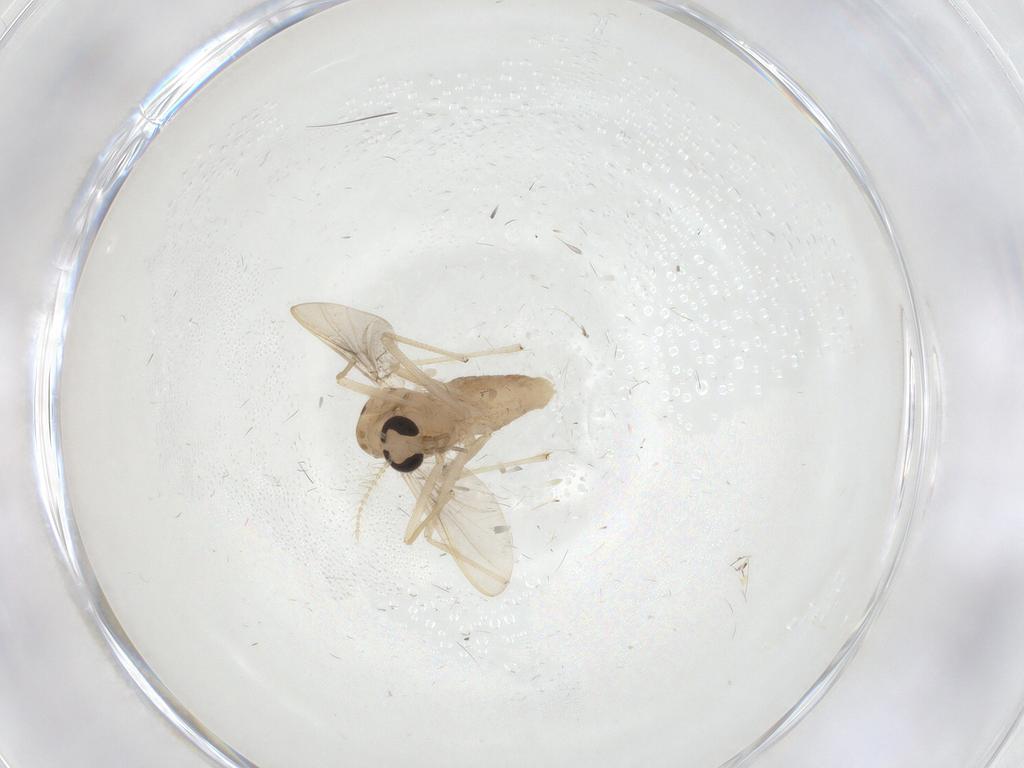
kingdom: Animalia
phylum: Arthropoda
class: Insecta
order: Diptera
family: Chironomidae
